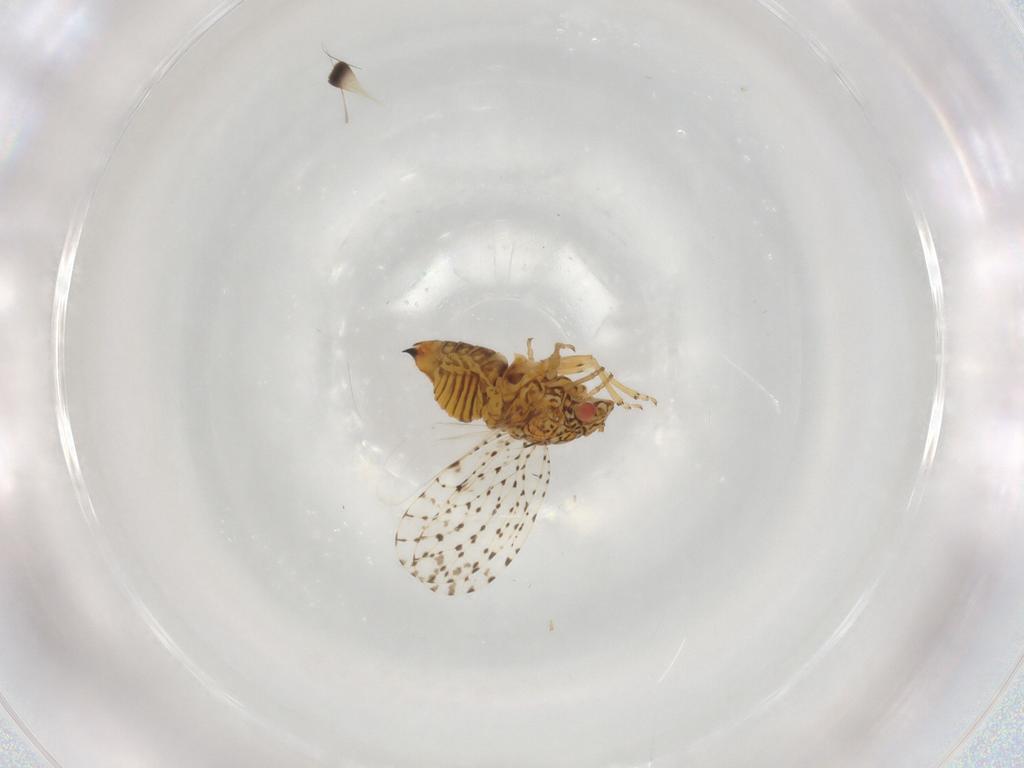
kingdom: Animalia
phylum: Arthropoda
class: Insecta
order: Hemiptera
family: Psyllidae
